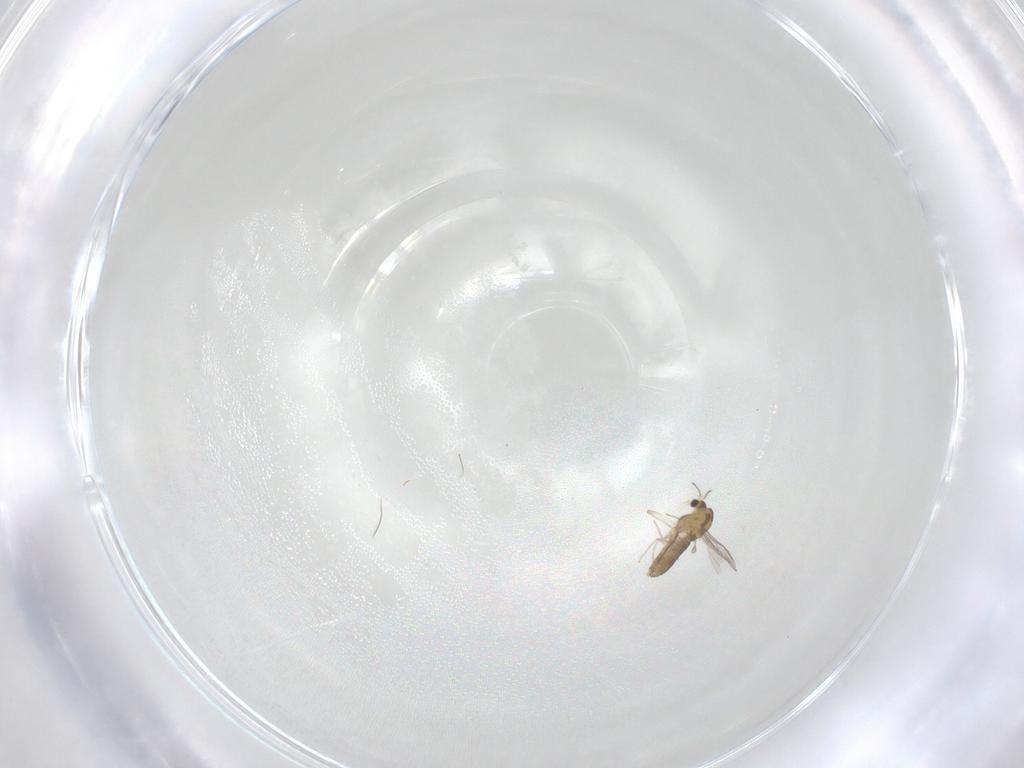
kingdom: Animalia
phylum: Arthropoda
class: Insecta
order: Diptera
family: Chironomidae
